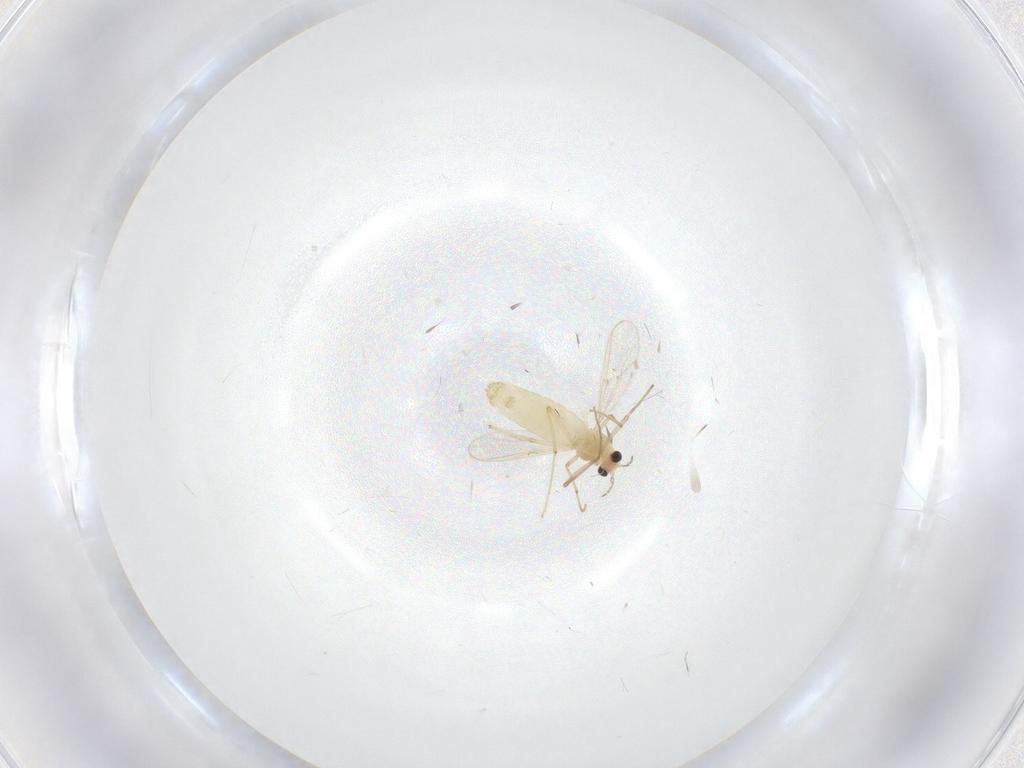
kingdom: Animalia
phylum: Arthropoda
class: Insecta
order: Diptera
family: Chironomidae
